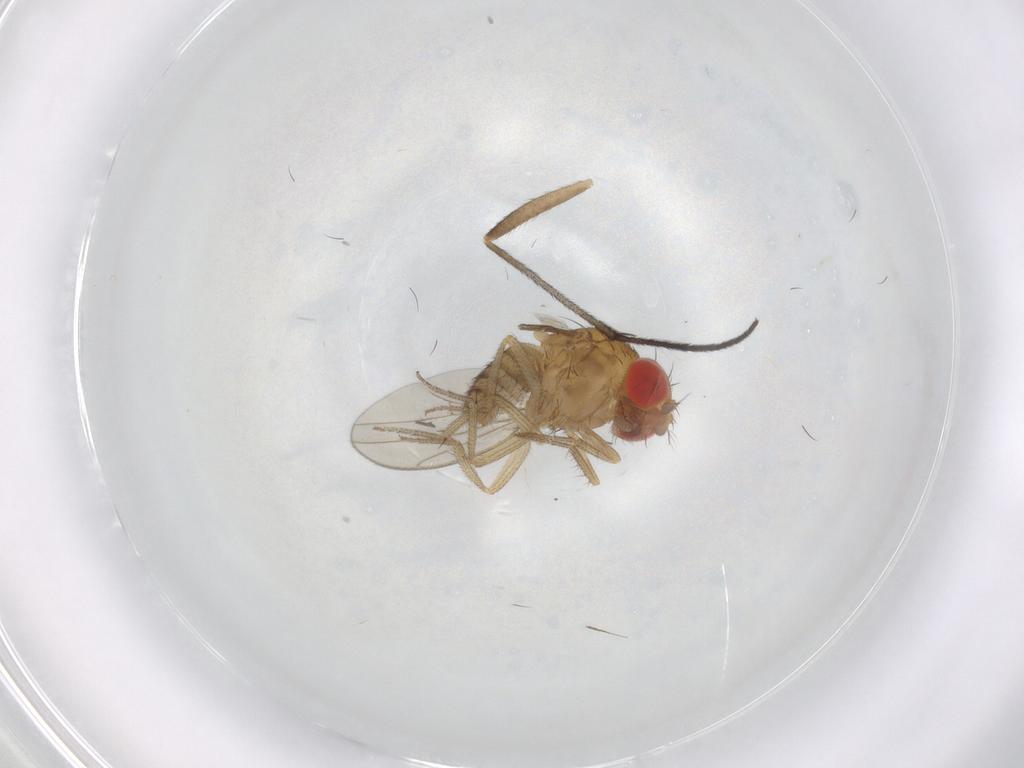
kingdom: Animalia
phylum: Arthropoda
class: Insecta
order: Diptera
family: Drosophilidae
